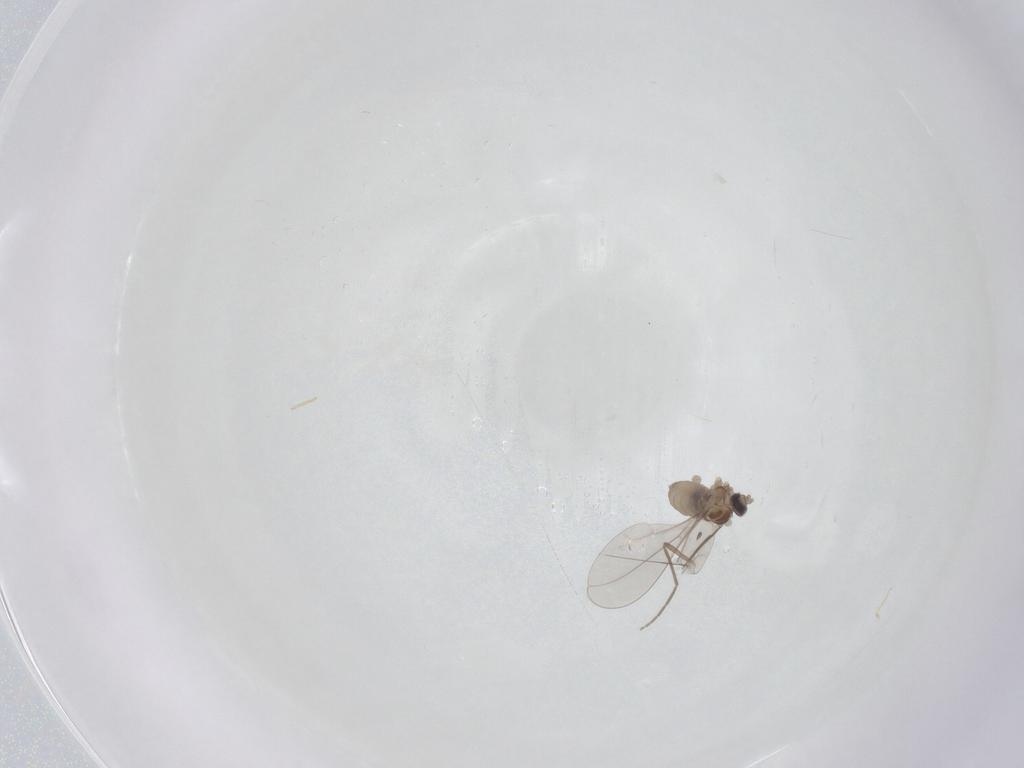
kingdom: Animalia
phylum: Arthropoda
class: Insecta
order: Diptera
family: Cecidomyiidae
